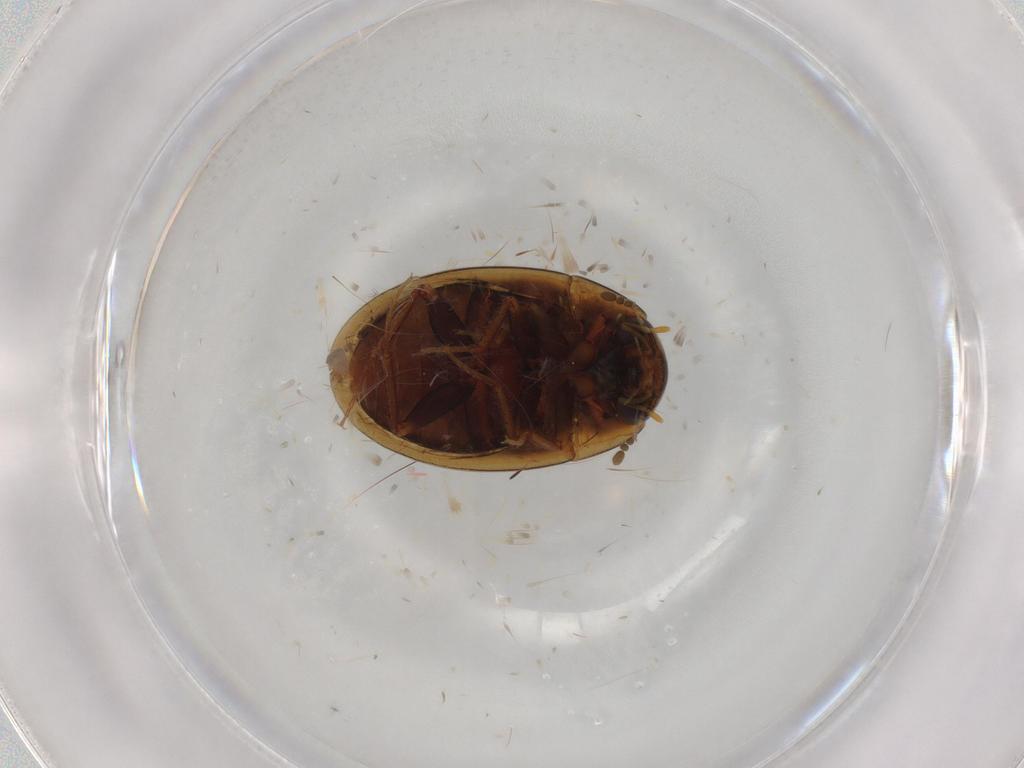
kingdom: Animalia
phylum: Arthropoda
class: Insecta
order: Coleoptera
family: Hydrophilidae
